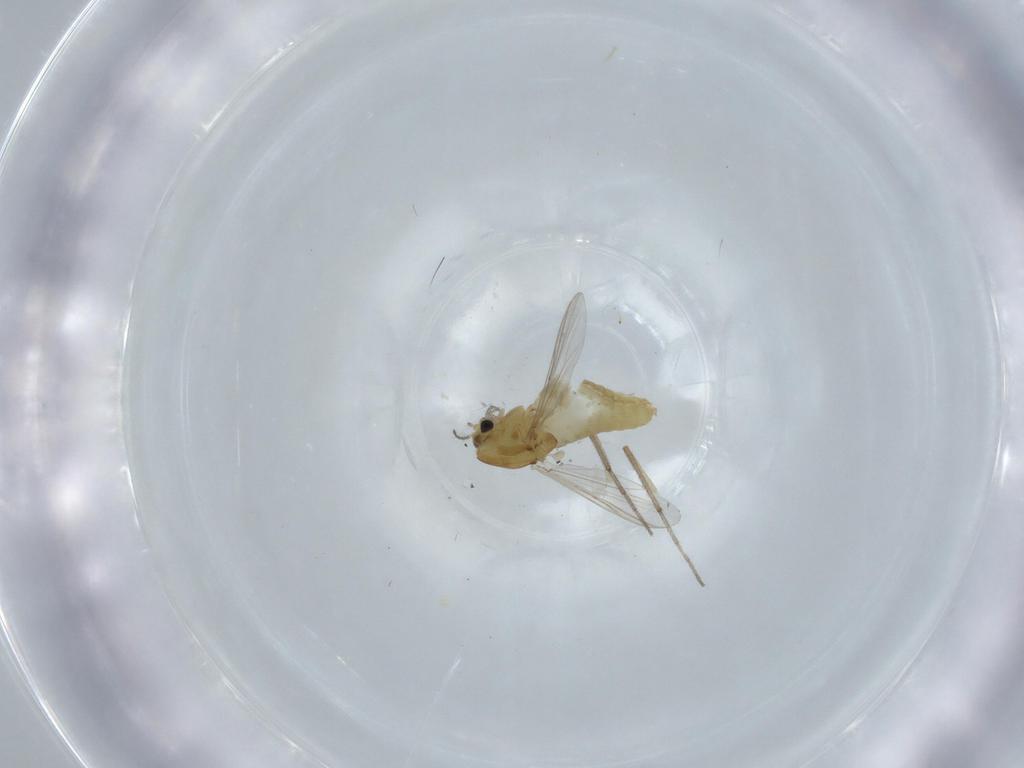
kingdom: Animalia
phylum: Arthropoda
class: Insecta
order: Diptera
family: Chironomidae
